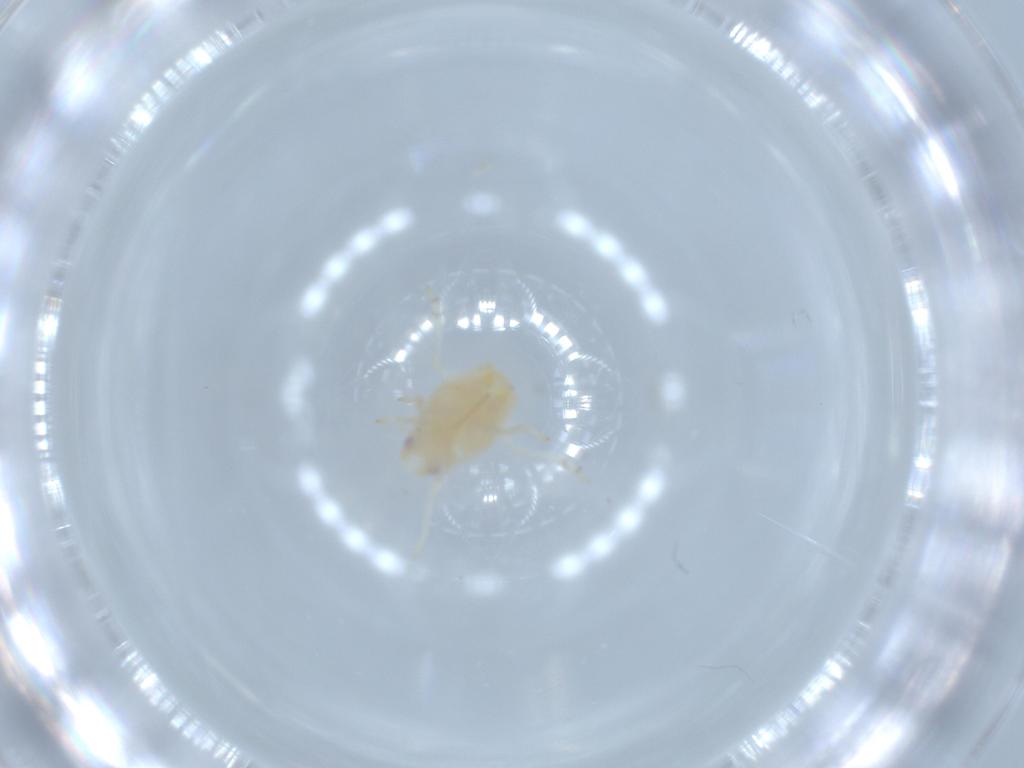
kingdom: Animalia
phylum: Arthropoda
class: Insecta
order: Hemiptera
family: Flatidae
